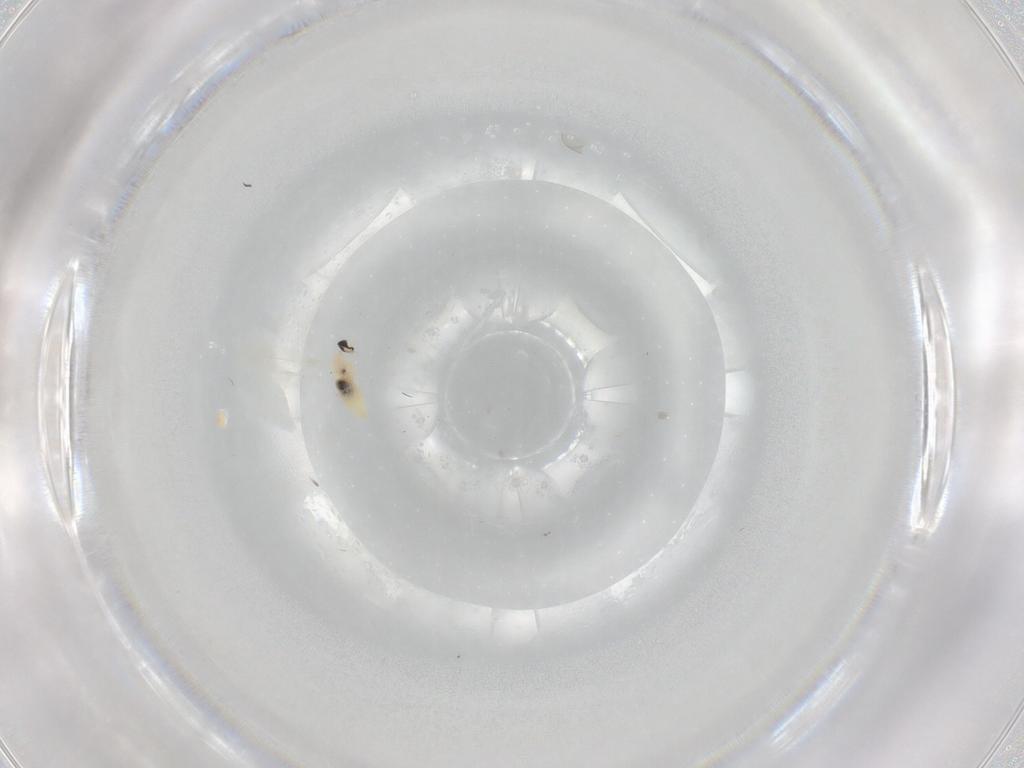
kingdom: Animalia
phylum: Arthropoda
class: Insecta
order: Diptera
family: Cecidomyiidae
